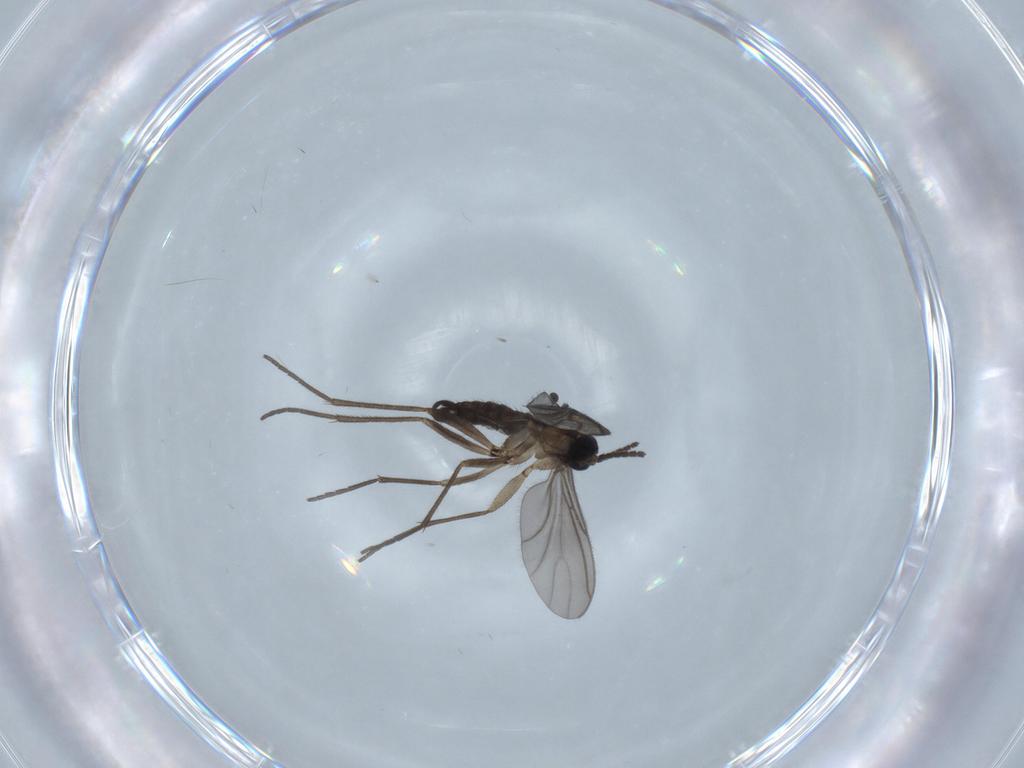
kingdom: Animalia
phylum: Arthropoda
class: Insecta
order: Diptera
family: Sciaridae
